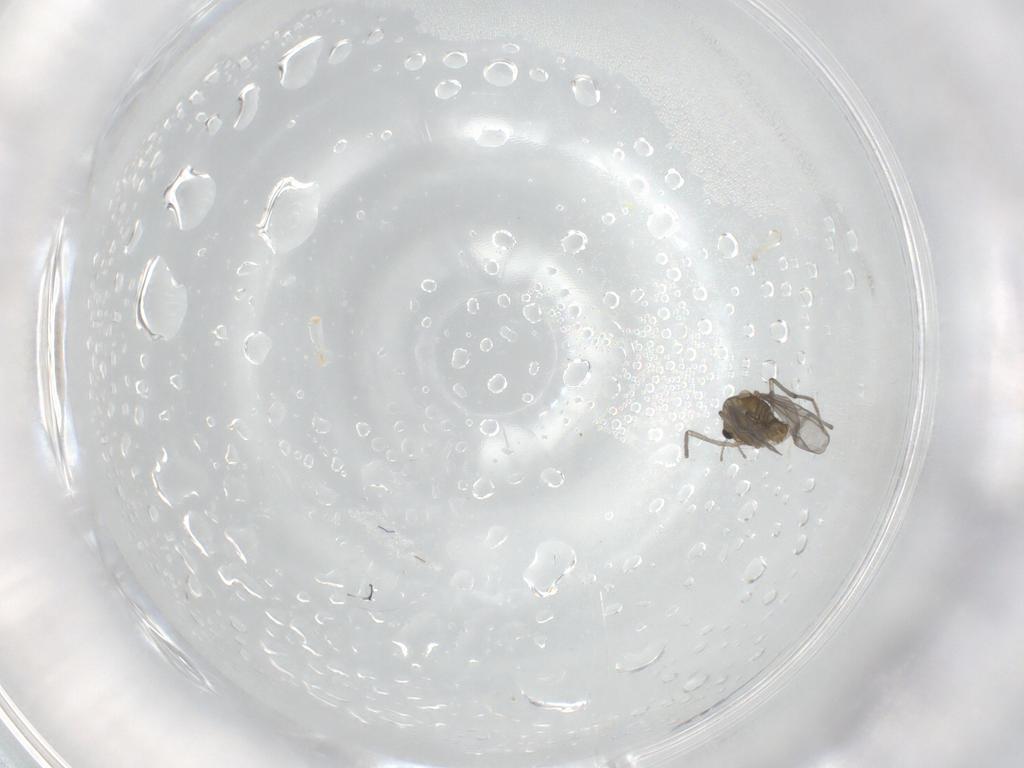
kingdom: Animalia
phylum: Arthropoda
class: Insecta
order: Diptera
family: Chironomidae
